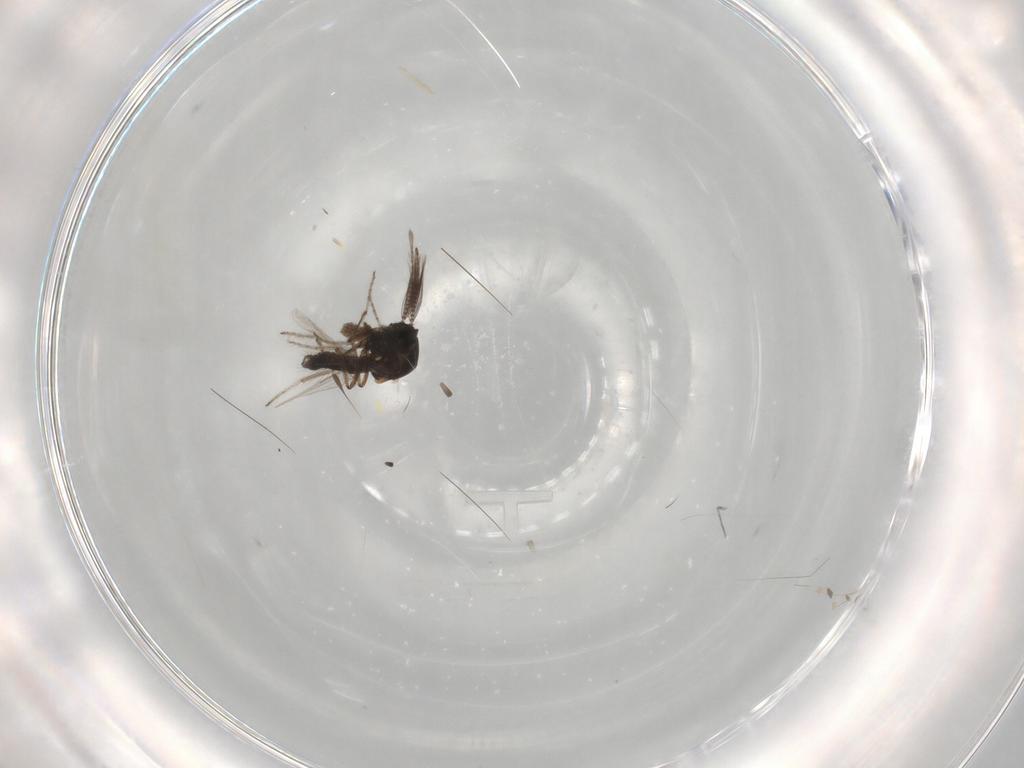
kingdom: Animalia
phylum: Arthropoda
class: Insecta
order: Diptera
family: Ceratopogonidae
